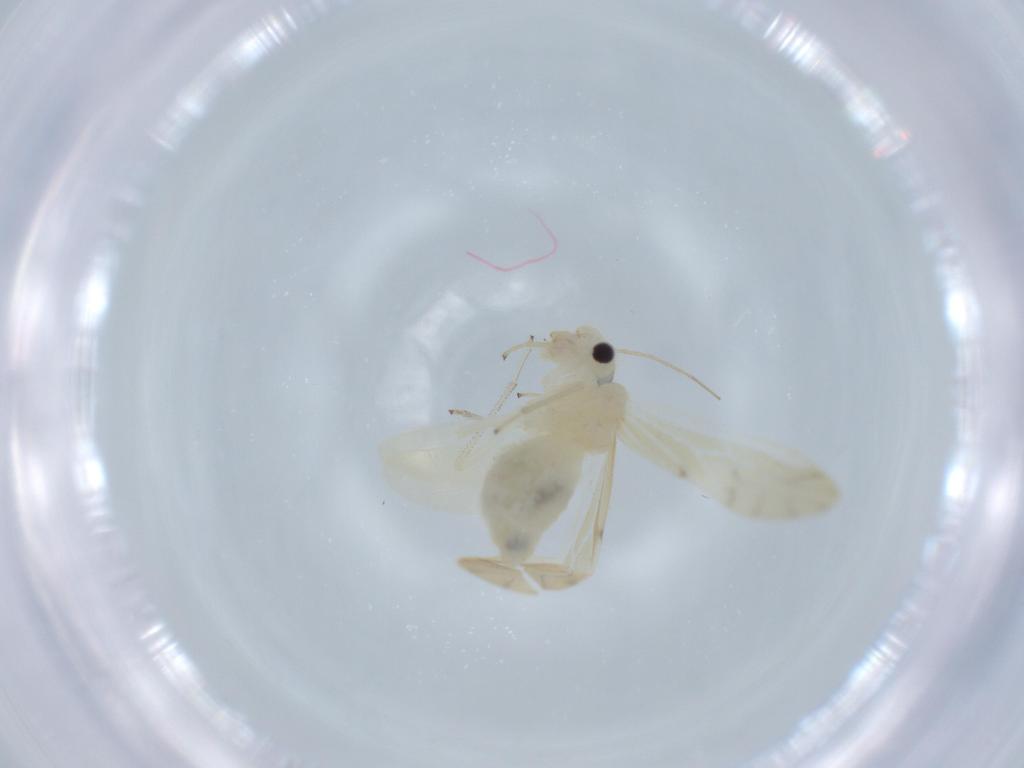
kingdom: Animalia
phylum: Arthropoda
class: Insecta
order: Psocodea
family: Caeciliusidae
